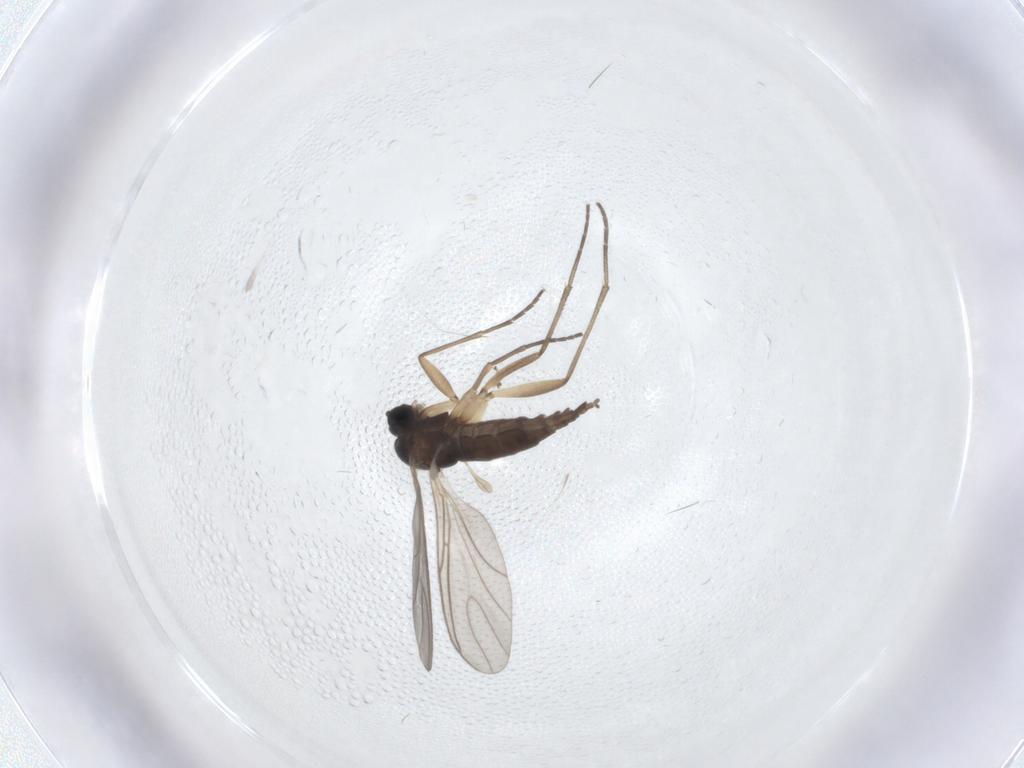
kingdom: Animalia
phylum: Arthropoda
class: Insecta
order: Diptera
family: Sciaridae
